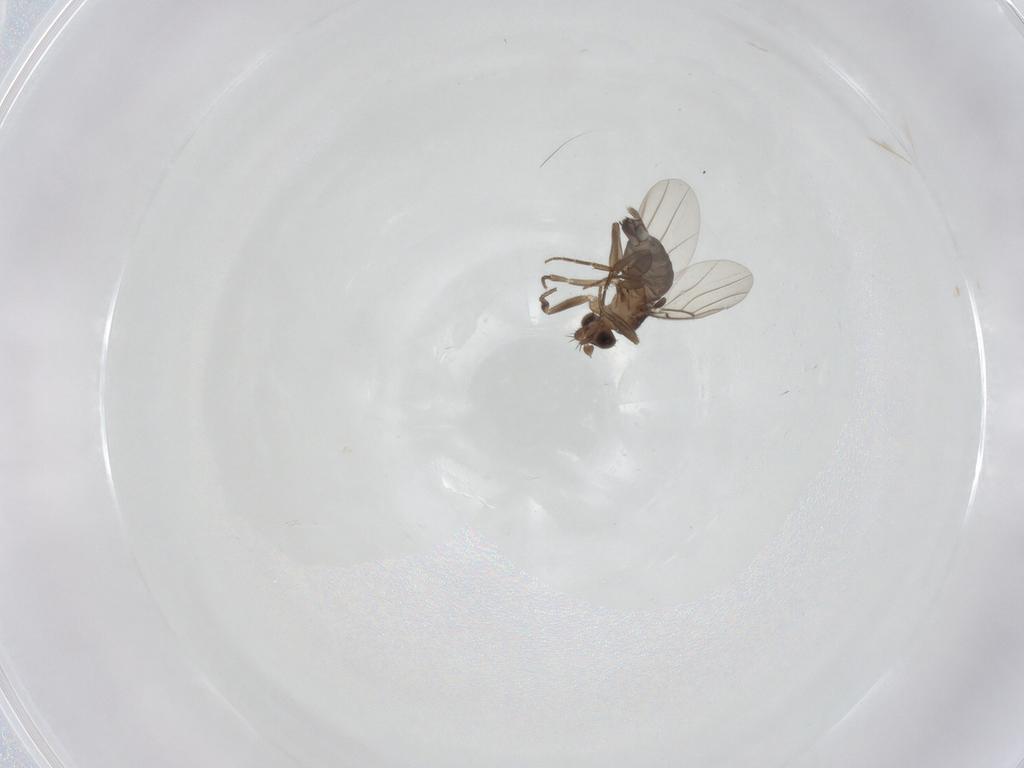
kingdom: Animalia
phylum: Arthropoda
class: Insecta
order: Diptera
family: Phoridae
